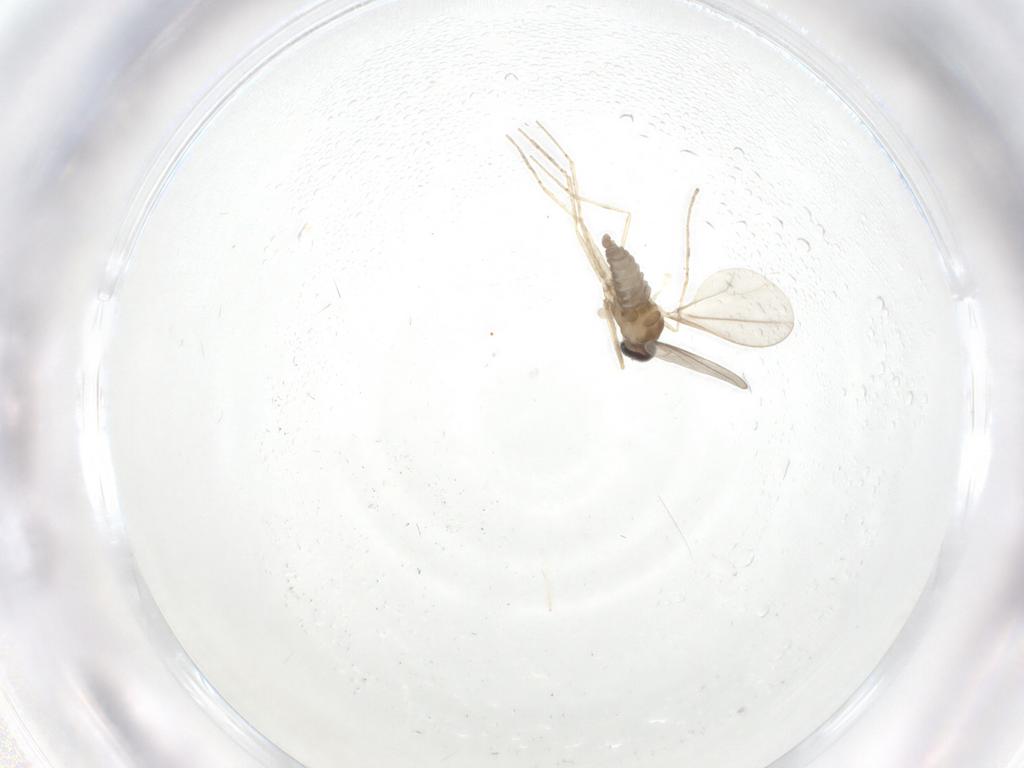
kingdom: Animalia
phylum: Arthropoda
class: Insecta
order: Diptera
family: Cecidomyiidae
